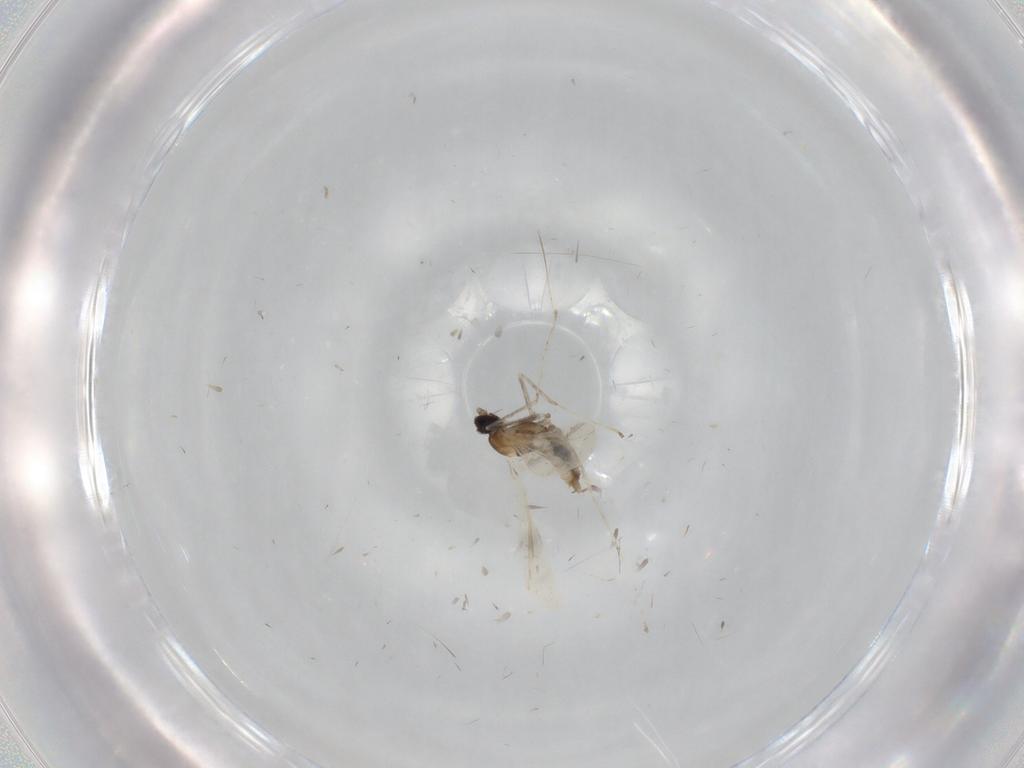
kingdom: Animalia
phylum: Arthropoda
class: Insecta
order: Diptera
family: Cecidomyiidae
